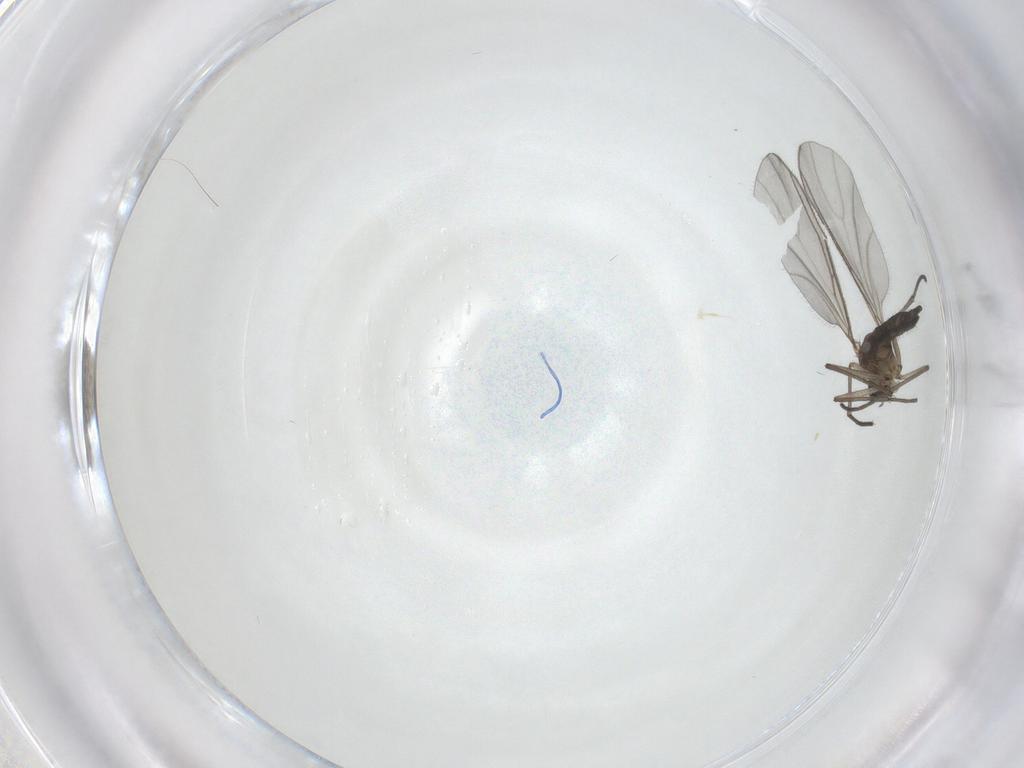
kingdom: Animalia
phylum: Arthropoda
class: Insecta
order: Diptera
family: Sciaridae
